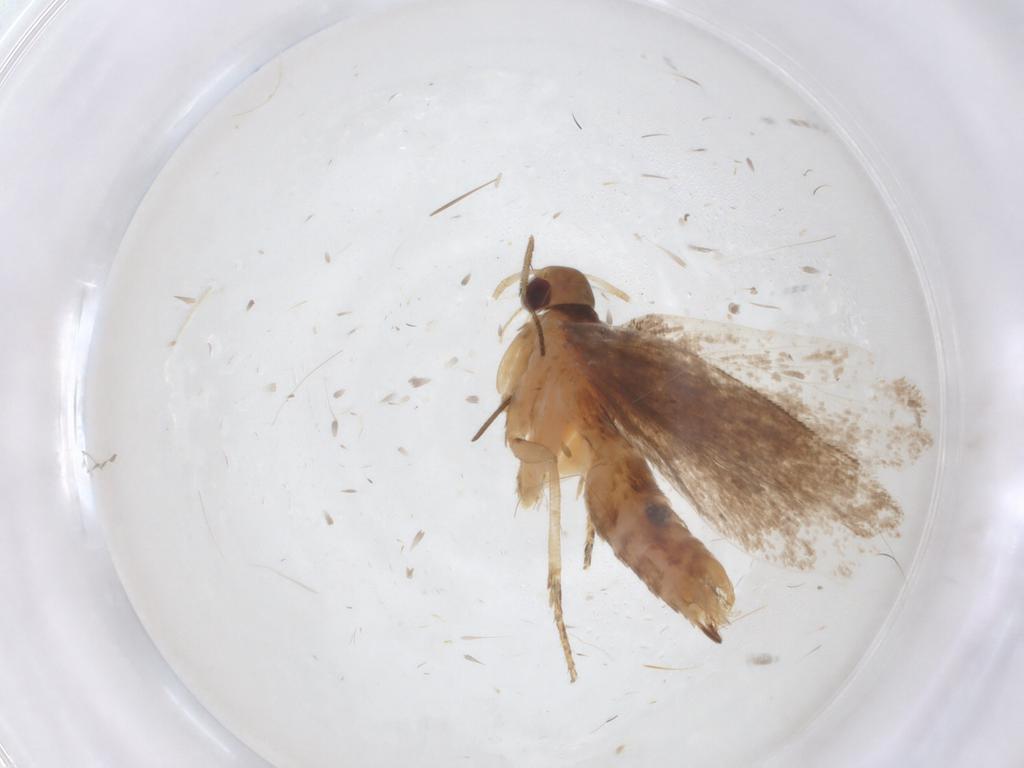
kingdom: Animalia
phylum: Arthropoda
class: Insecta
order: Lepidoptera
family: Gelechiidae
